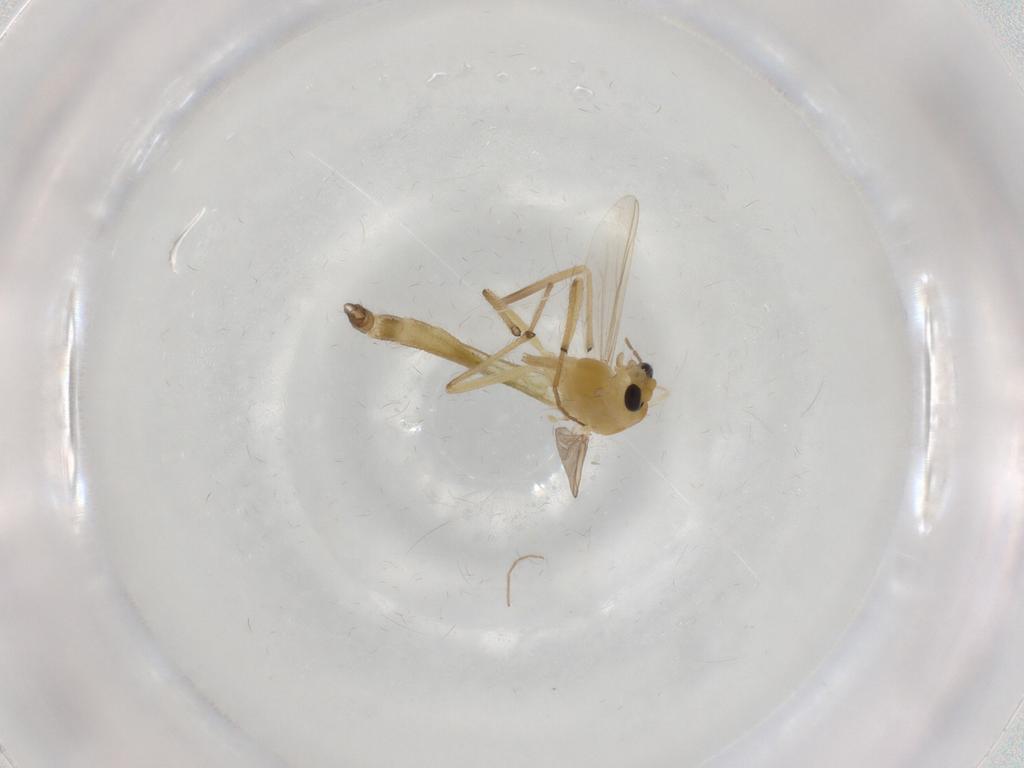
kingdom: Animalia
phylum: Arthropoda
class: Insecta
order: Diptera
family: Chironomidae
